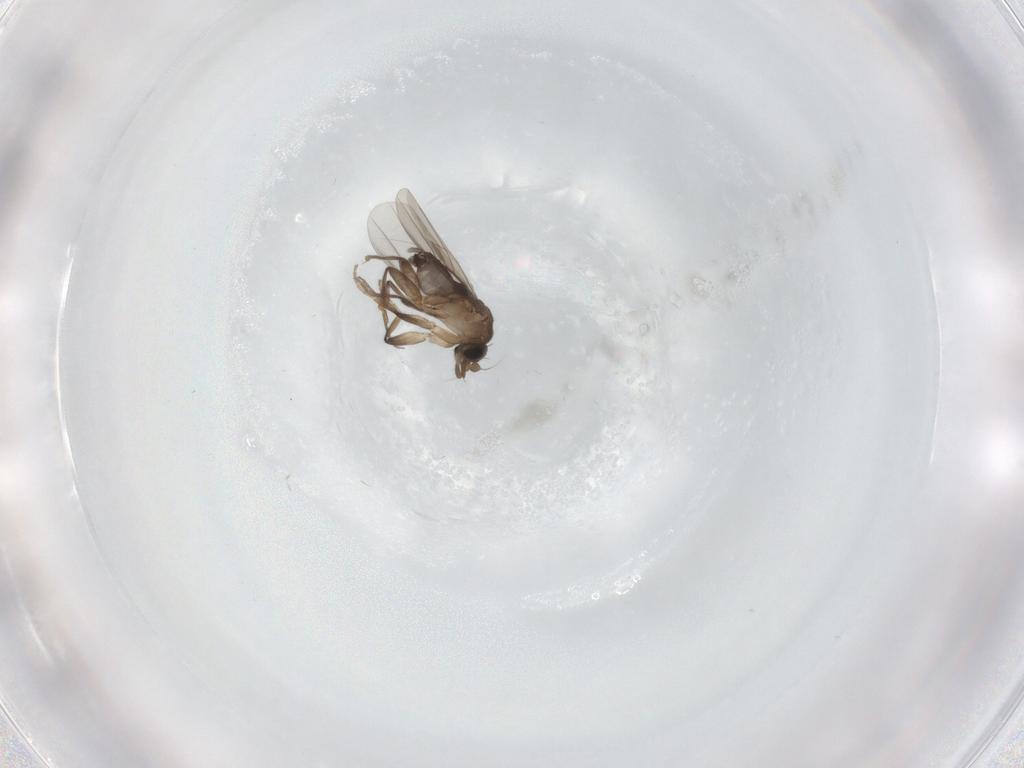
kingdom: Animalia
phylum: Arthropoda
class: Insecta
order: Diptera
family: Phoridae
